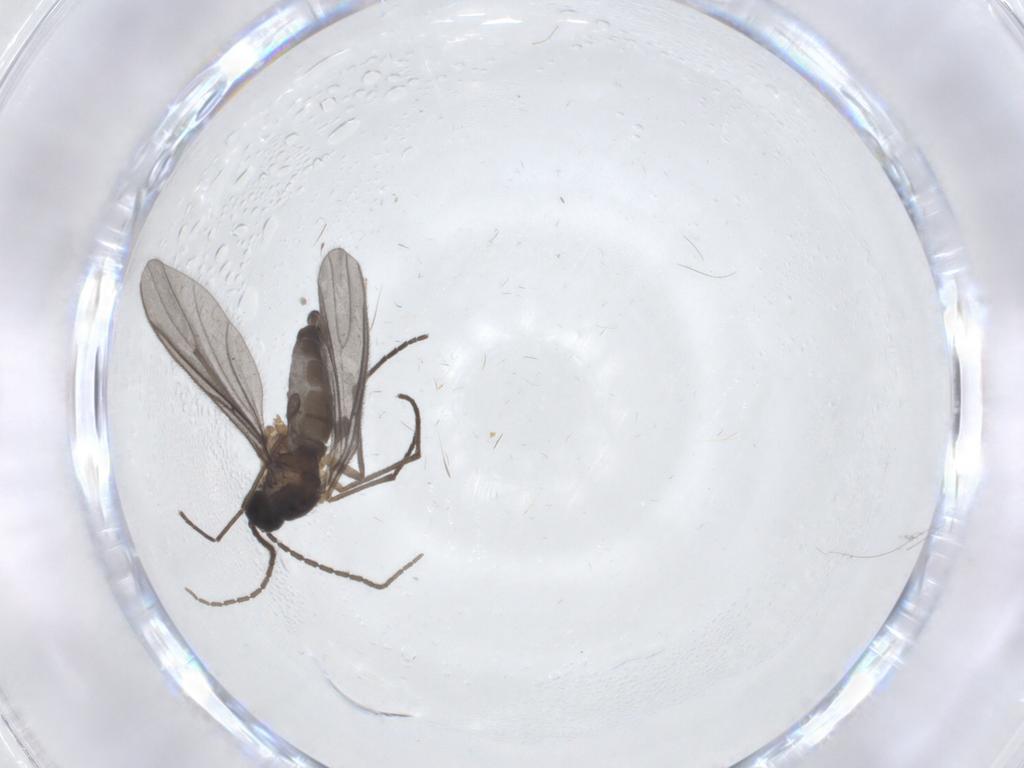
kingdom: Animalia
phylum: Arthropoda
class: Insecta
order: Diptera
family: Sciaridae
